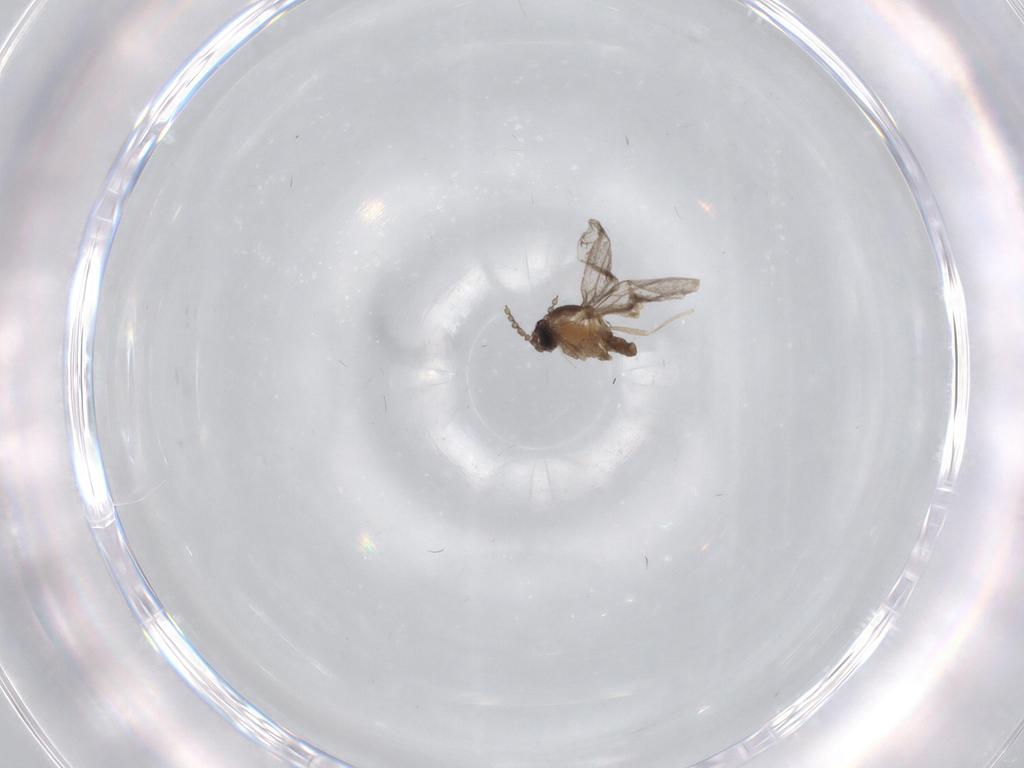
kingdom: Animalia
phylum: Arthropoda
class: Insecta
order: Diptera
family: Cecidomyiidae
